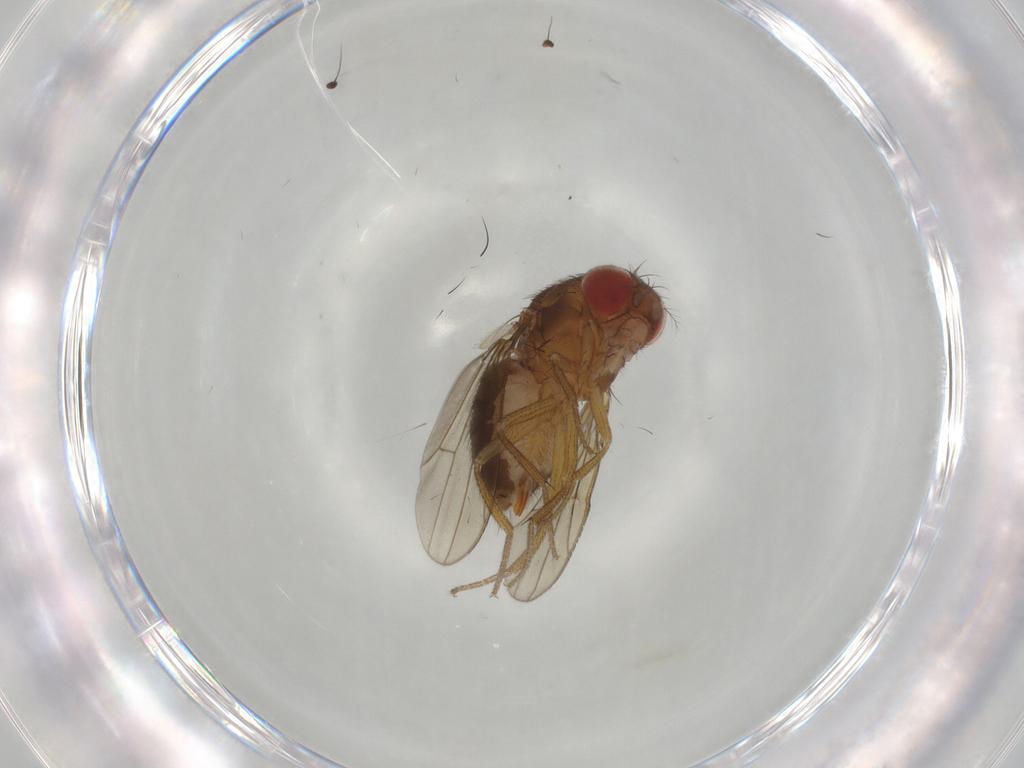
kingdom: Animalia
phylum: Arthropoda
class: Insecta
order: Diptera
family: Drosophilidae
